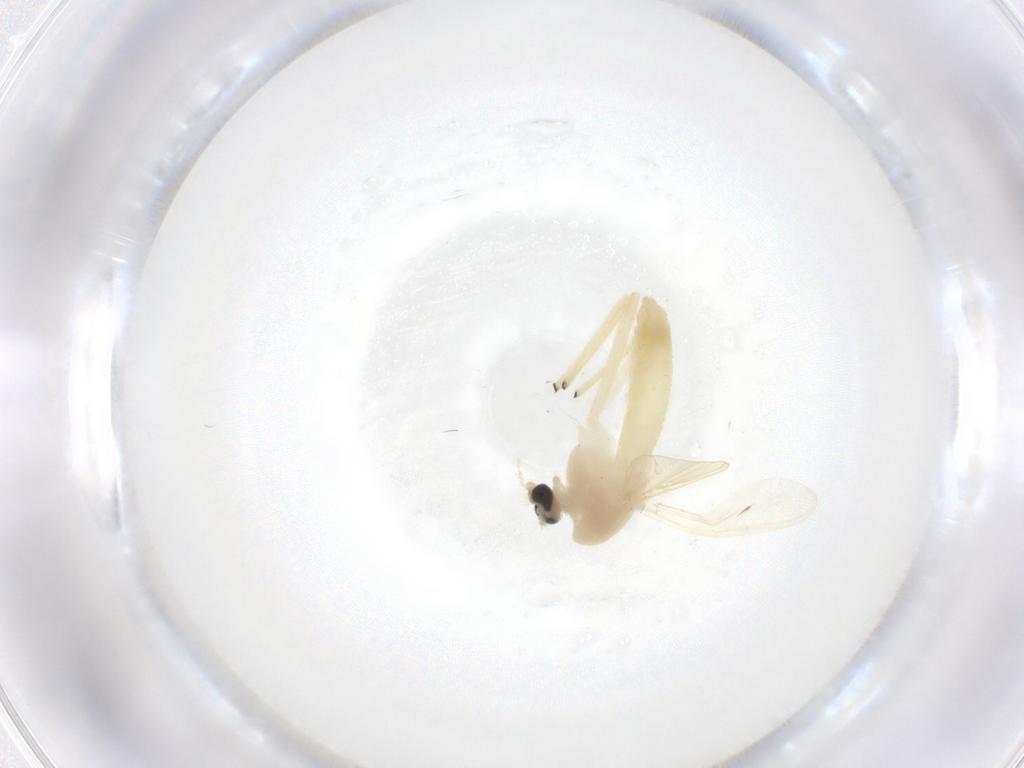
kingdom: Animalia
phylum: Arthropoda
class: Insecta
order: Diptera
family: Chironomidae
